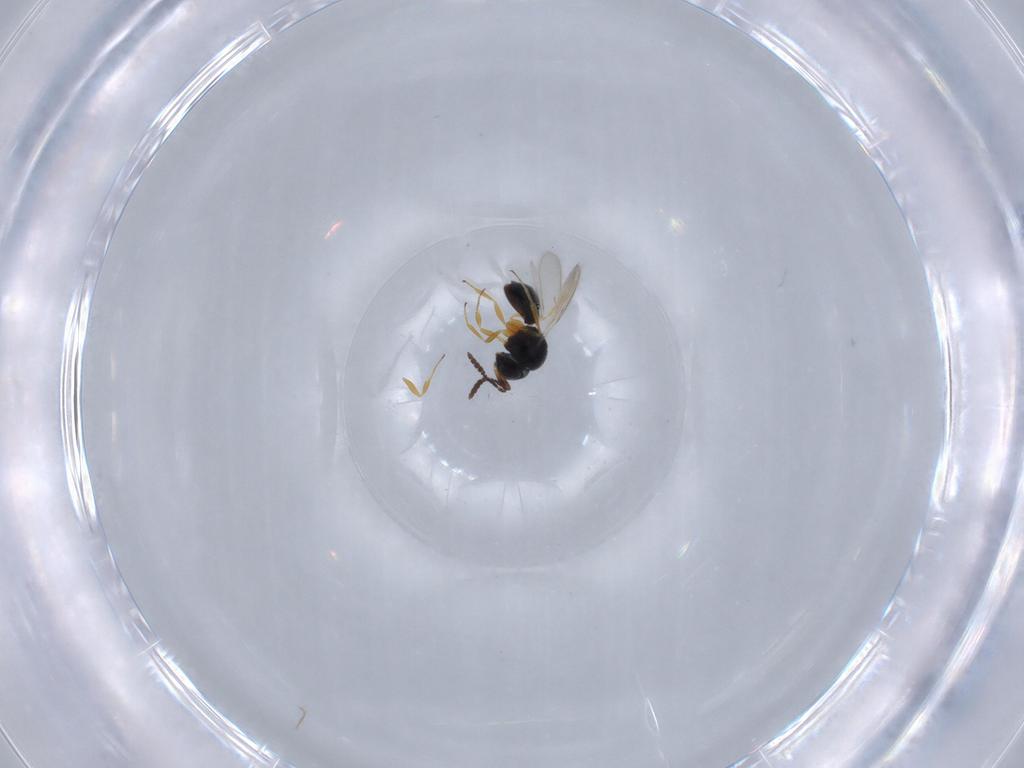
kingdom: Animalia
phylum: Arthropoda
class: Insecta
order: Hymenoptera
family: Scelionidae
